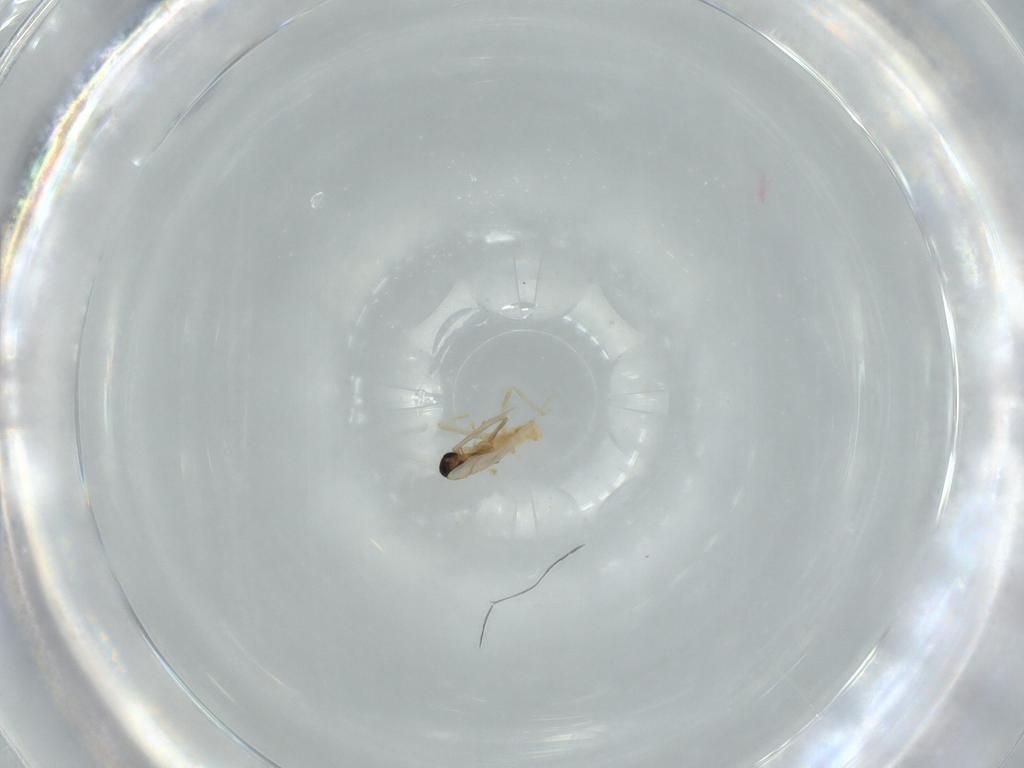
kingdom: Animalia
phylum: Arthropoda
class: Insecta
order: Diptera
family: Cecidomyiidae
